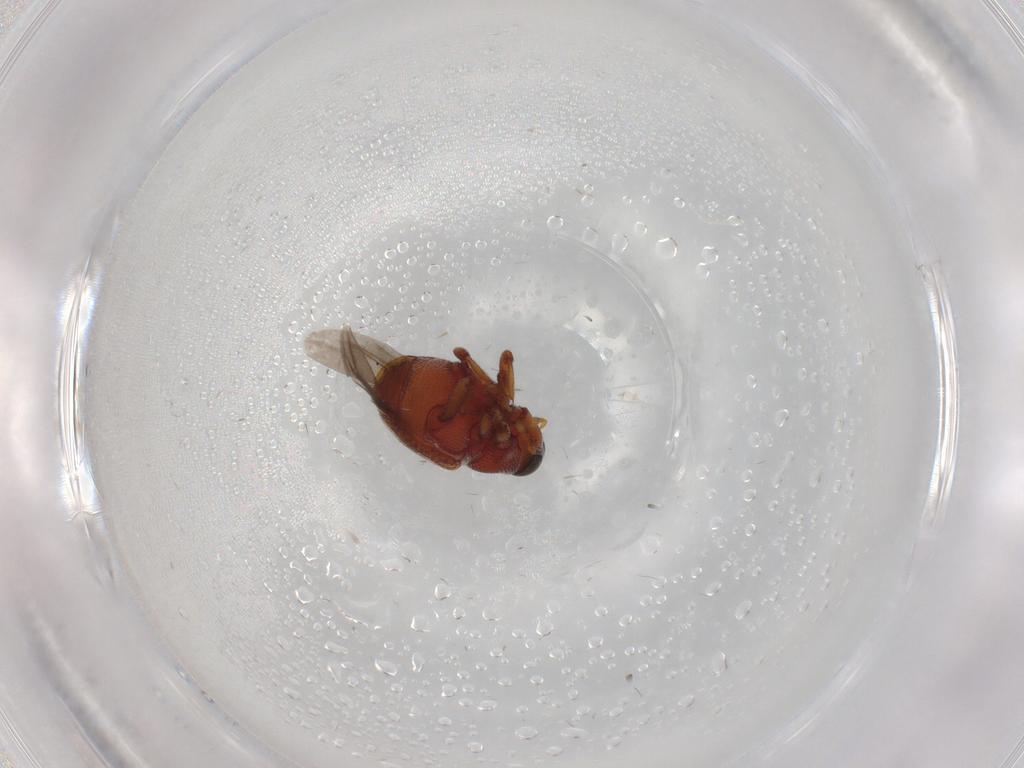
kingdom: Animalia
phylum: Arthropoda
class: Insecta
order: Coleoptera
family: Curculionidae
